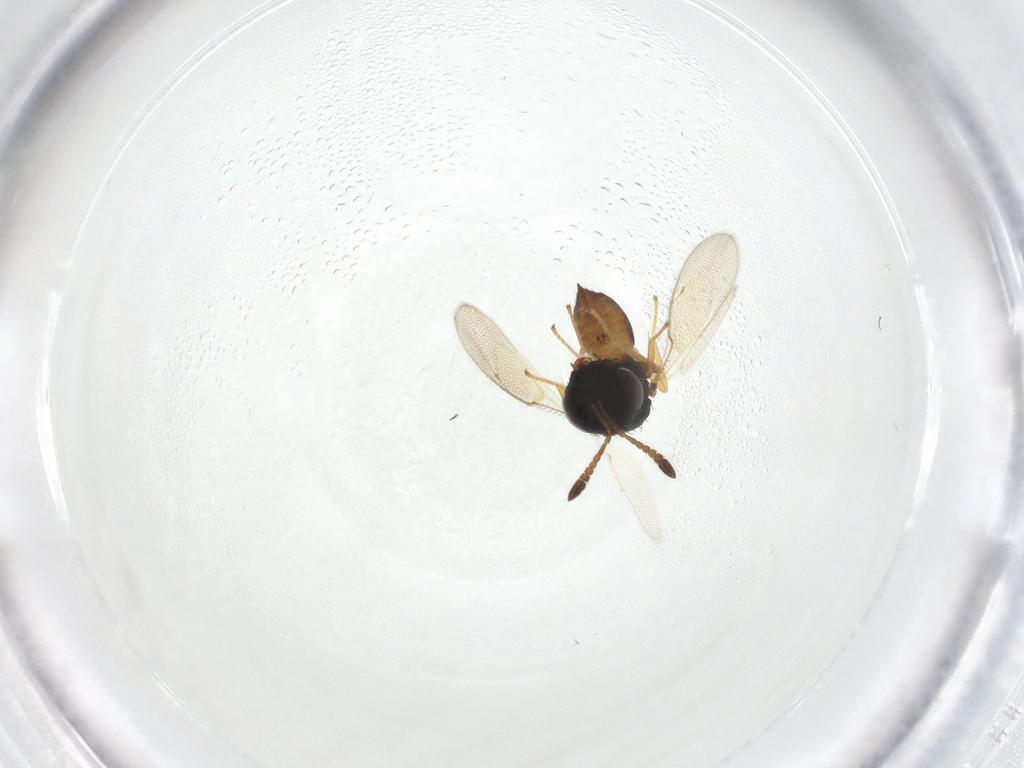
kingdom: Animalia
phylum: Arthropoda
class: Insecta
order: Hymenoptera
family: Pteromalidae
